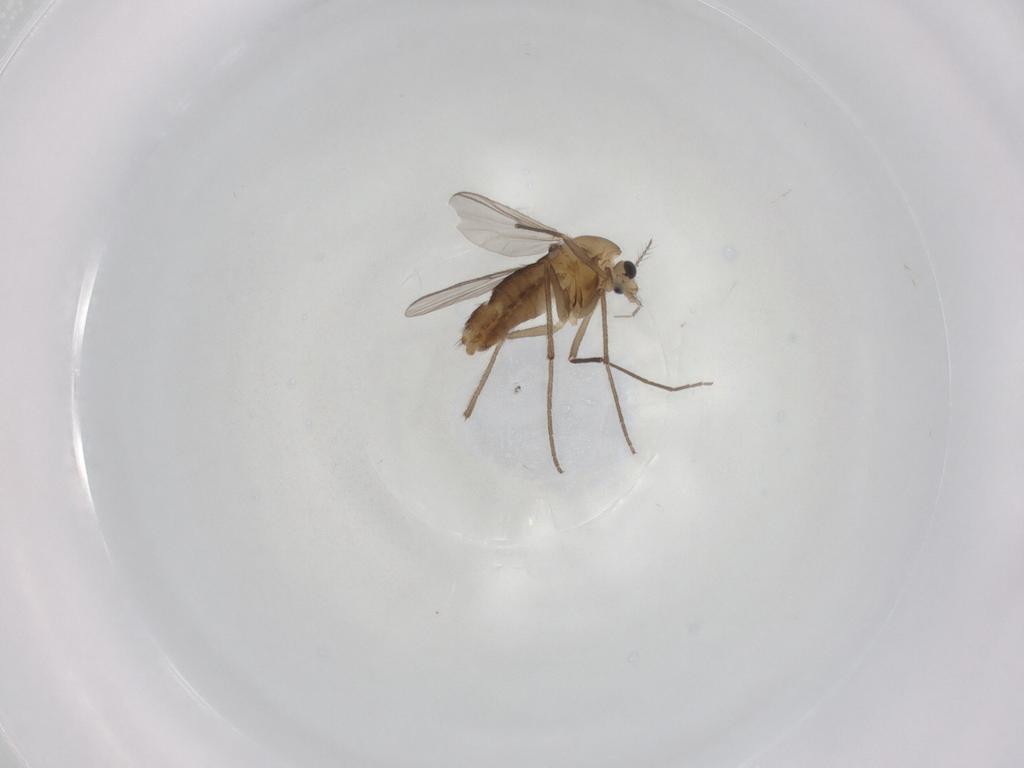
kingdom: Animalia
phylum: Arthropoda
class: Insecta
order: Diptera
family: Chironomidae
